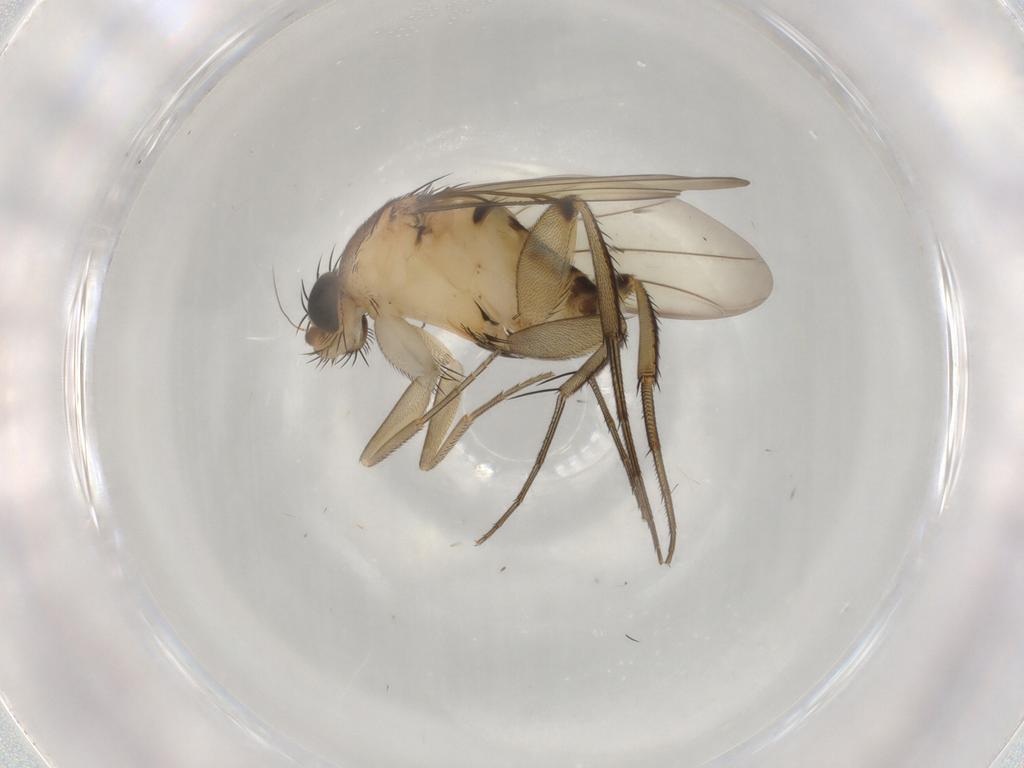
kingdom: Animalia
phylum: Arthropoda
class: Insecta
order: Diptera
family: Phoridae
